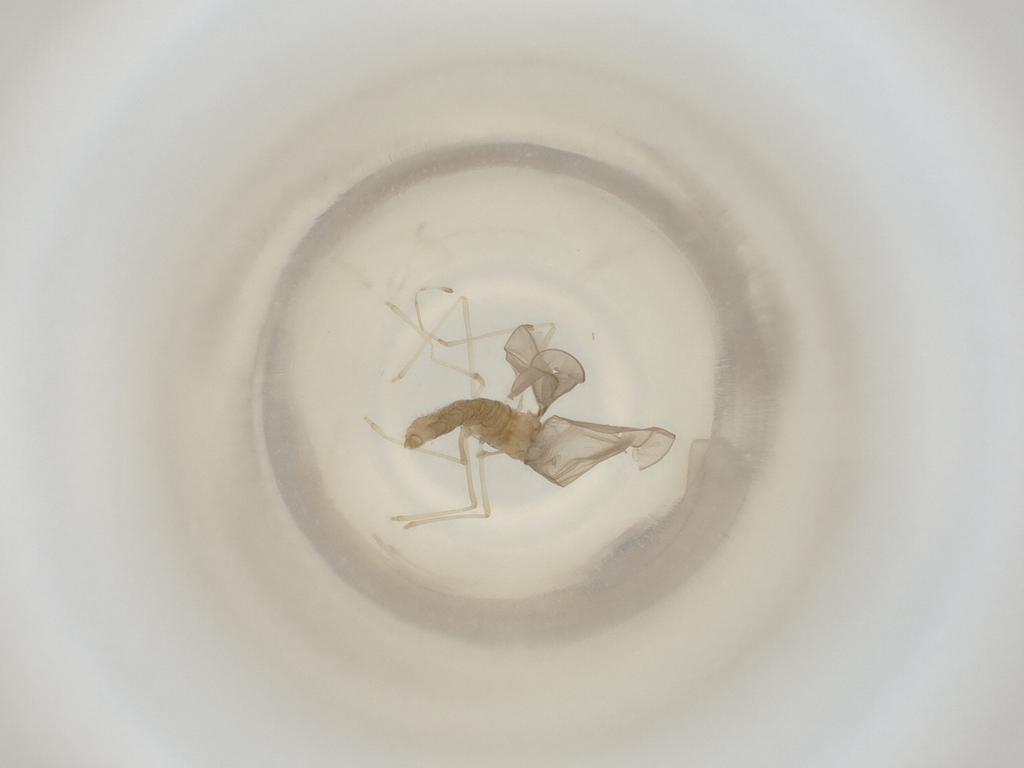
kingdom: Animalia
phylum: Arthropoda
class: Insecta
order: Diptera
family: Cecidomyiidae
